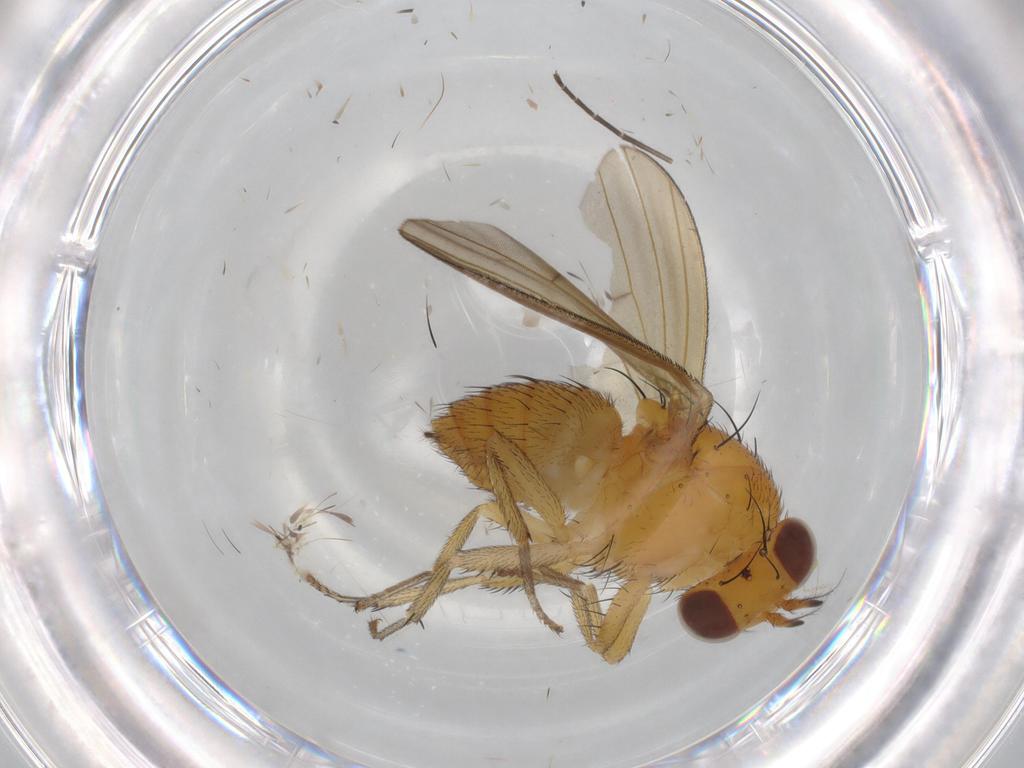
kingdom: Animalia
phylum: Arthropoda
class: Insecta
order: Diptera
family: Lauxaniidae
